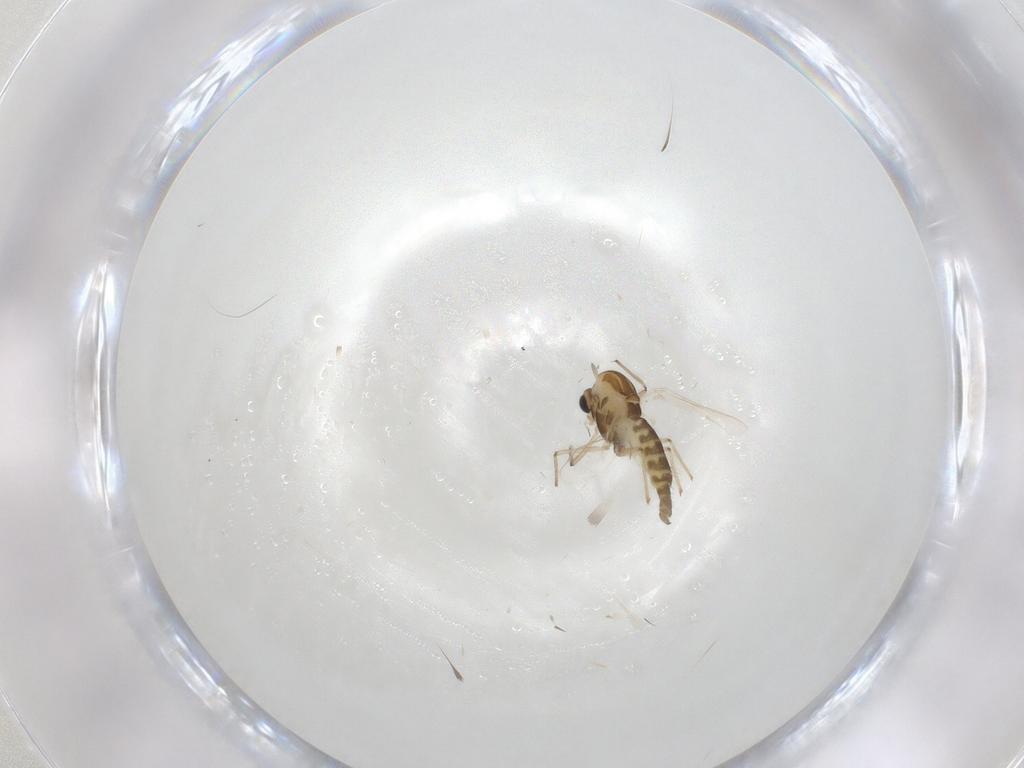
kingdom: Animalia
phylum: Arthropoda
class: Insecta
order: Diptera
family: Chironomidae
